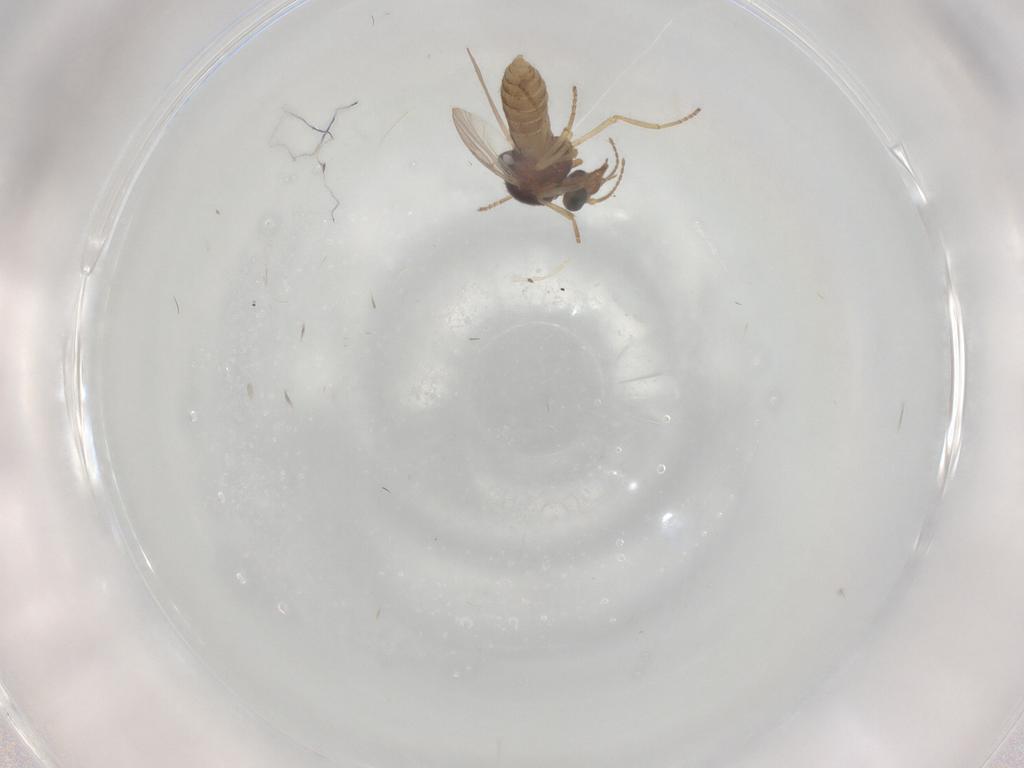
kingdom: Animalia
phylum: Arthropoda
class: Insecta
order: Diptera
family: Ceratopogonidae
